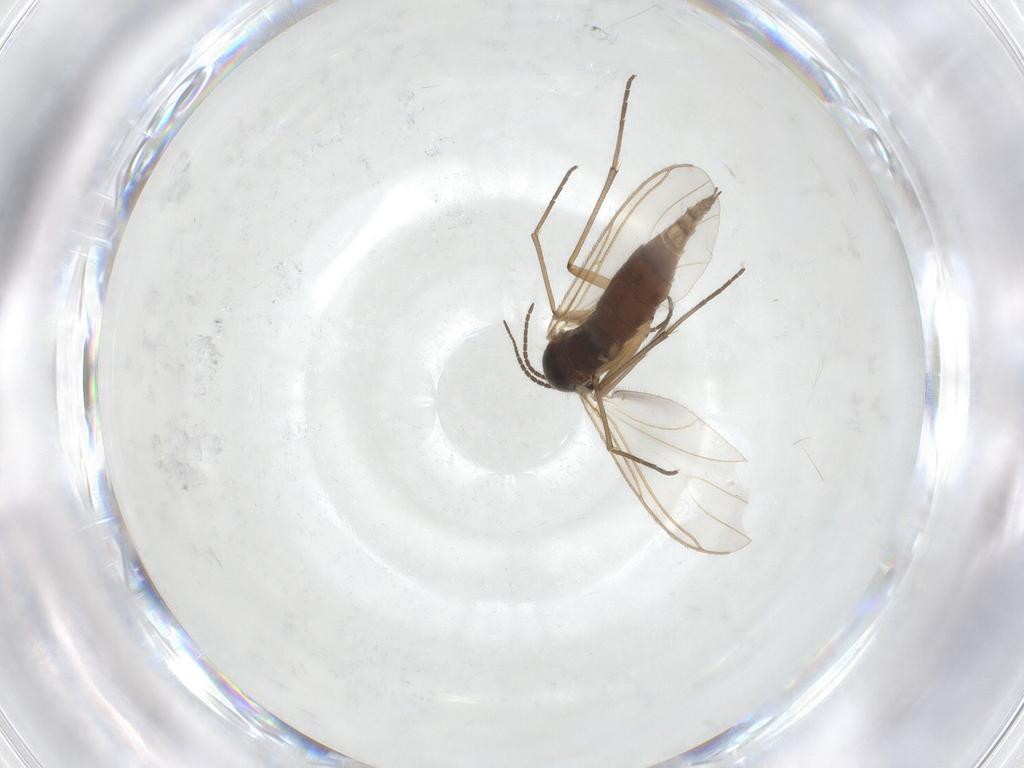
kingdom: Animalia
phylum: Arthropoda
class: Insecta
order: Diptera
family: Sciaridae
